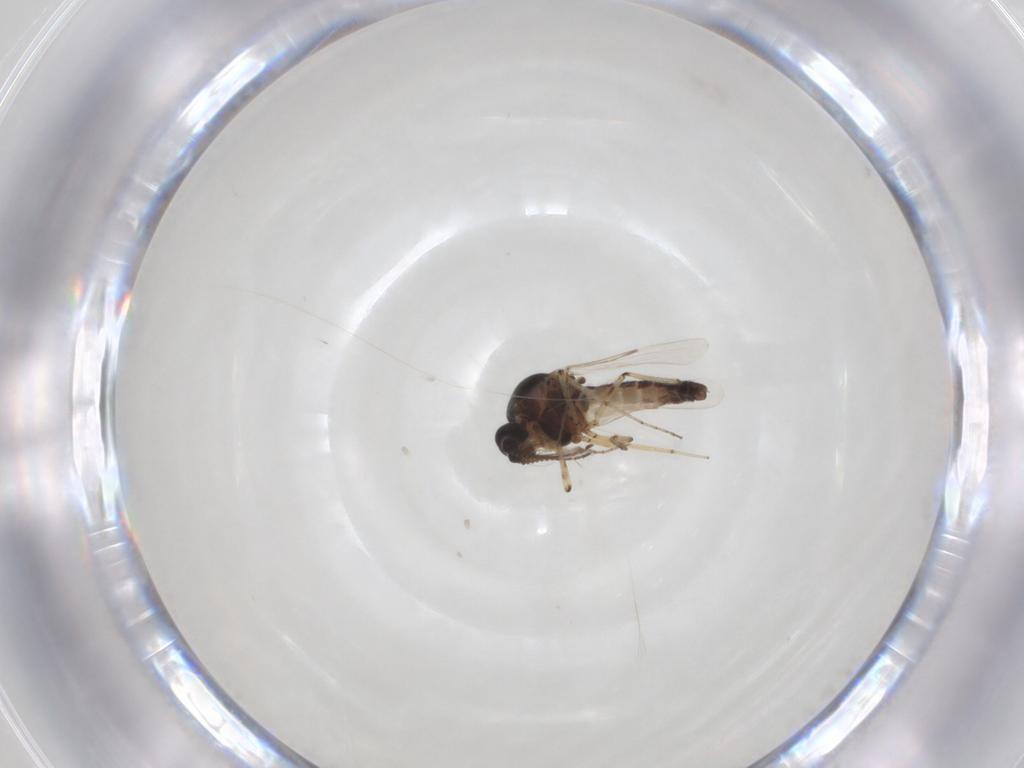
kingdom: Animalia
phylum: Arthropoda
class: Insecta
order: Diptera
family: Ceratopogonidae
